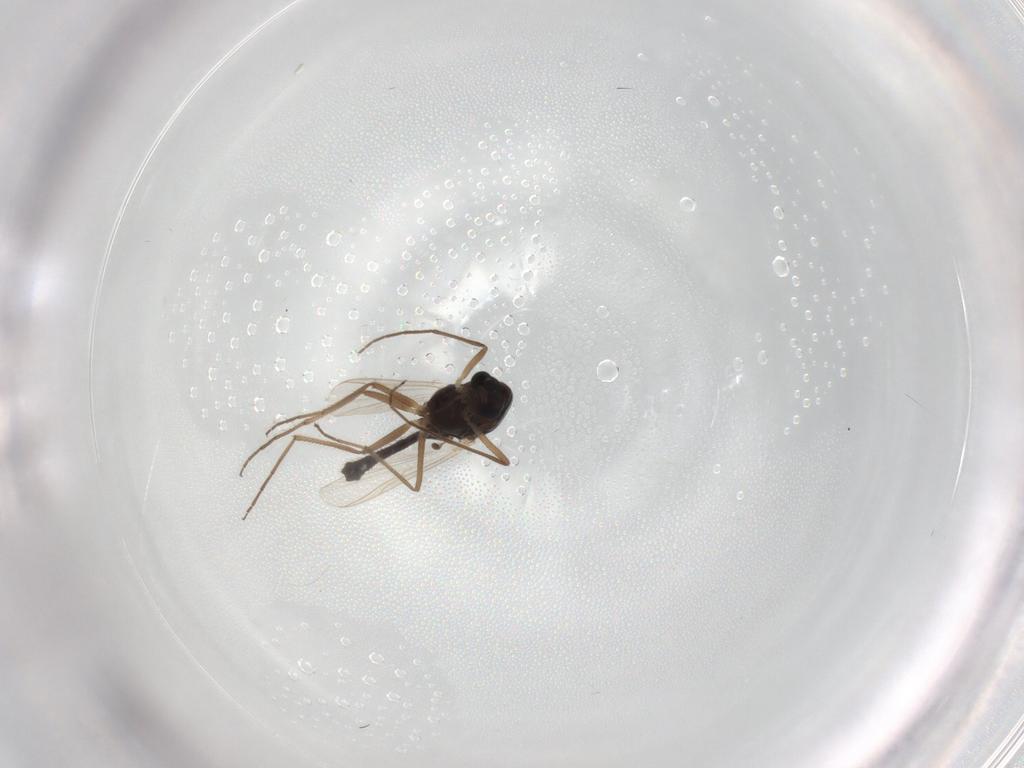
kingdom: Animalia
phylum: Arthropoda
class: Insecta
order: Diptera
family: Chironomidae
